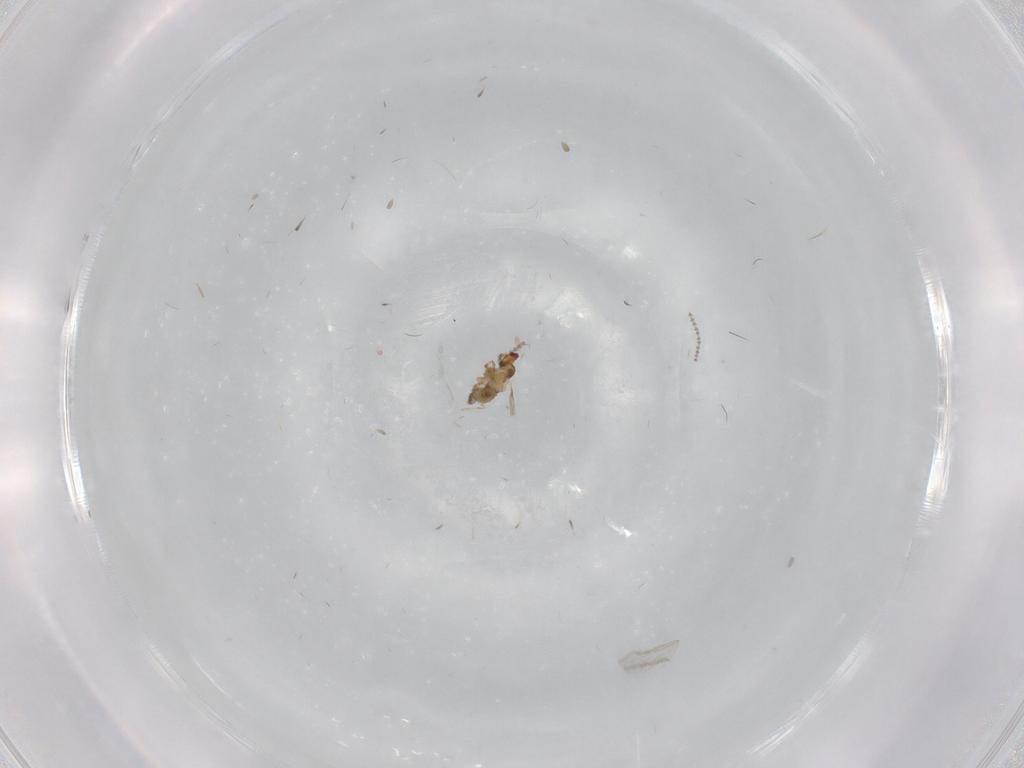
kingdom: Animalia
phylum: Arthropoda
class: Insecta
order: Diptera
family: Cecidomyiidae
